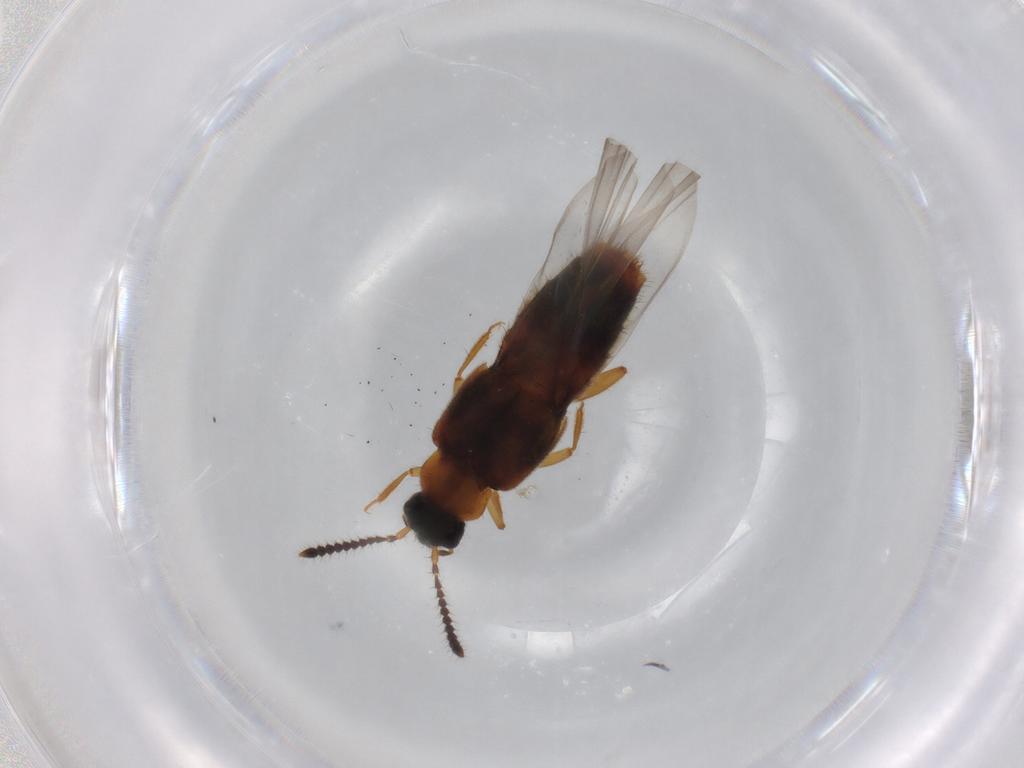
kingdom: Animalia
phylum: Arthropoda
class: Insecta
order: Coleoptera
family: Staphylinidae
